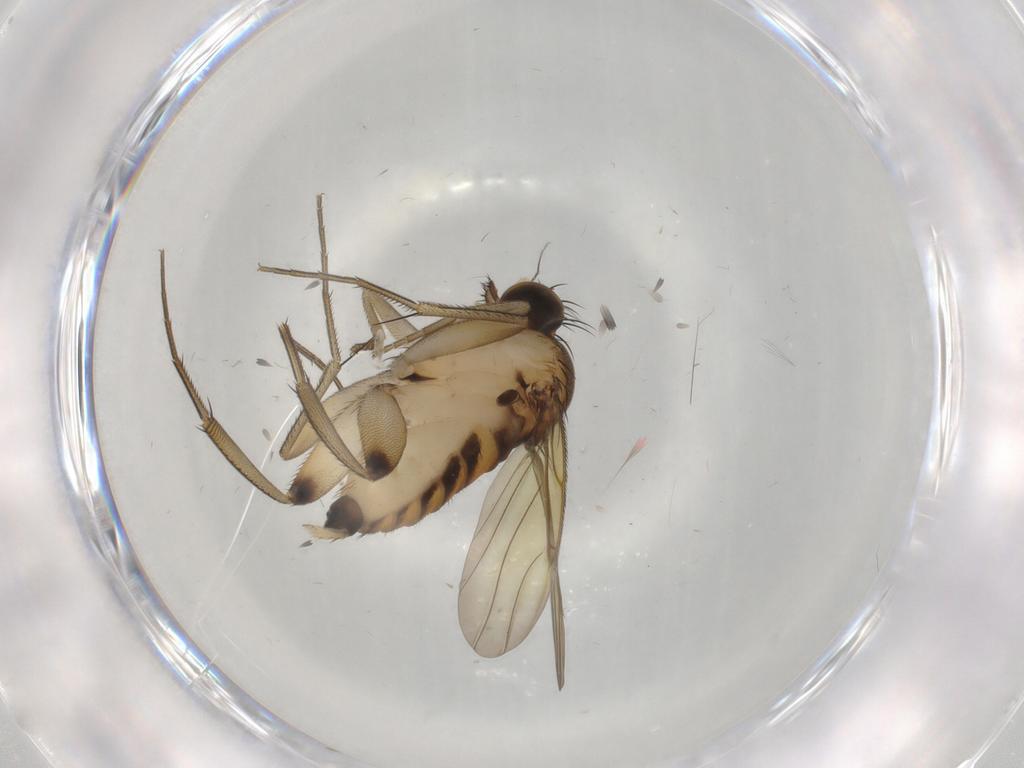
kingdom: Animalia
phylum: Arthropoda
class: Insecta
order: Diptera
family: Phoridae
